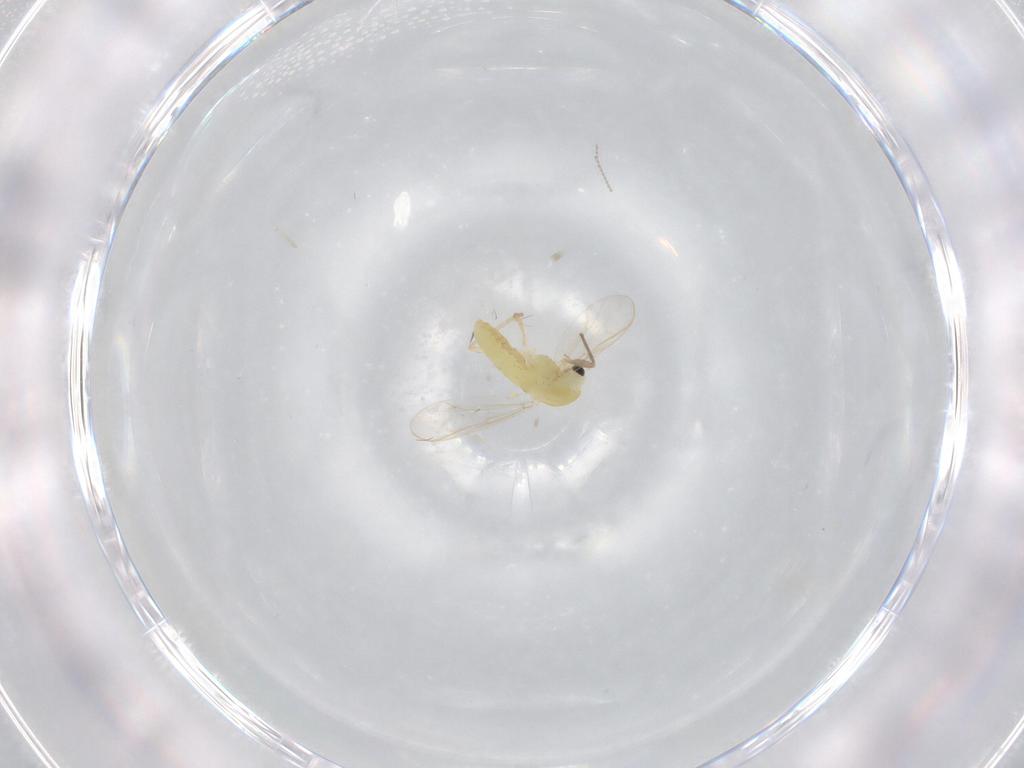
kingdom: Animalia
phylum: Arthropoda
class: Insecta
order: Diptera
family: Chironomidae
